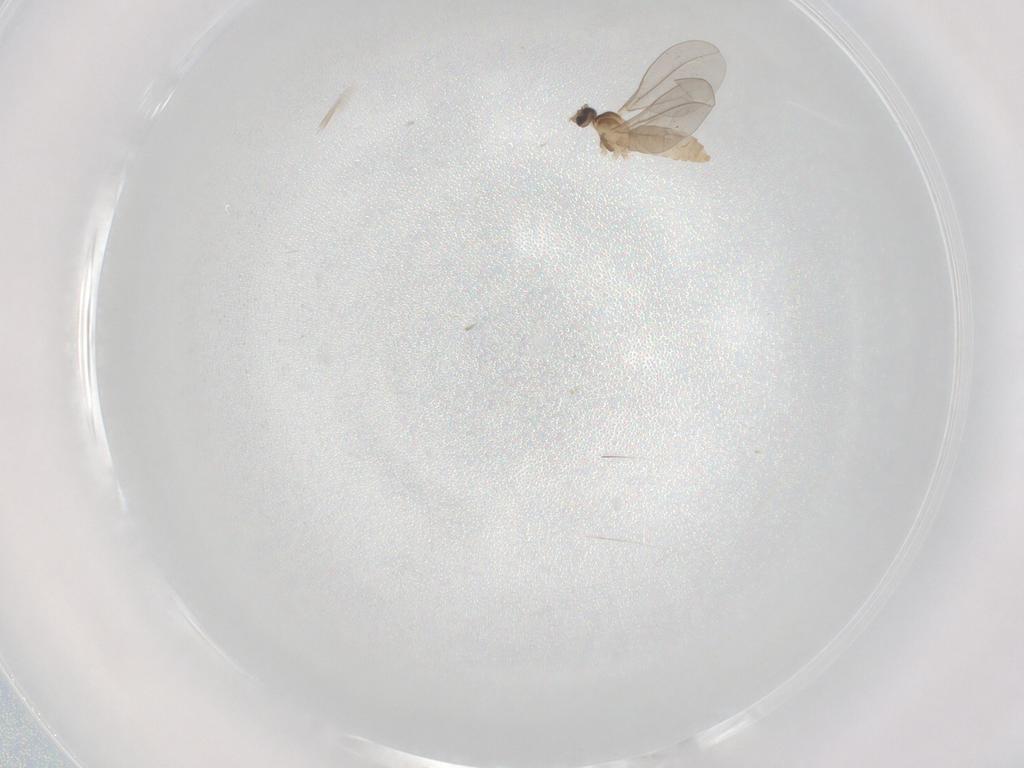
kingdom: Animalia
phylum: Arthropoda
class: Insecta
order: Diptera
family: Cecidomyiidae
